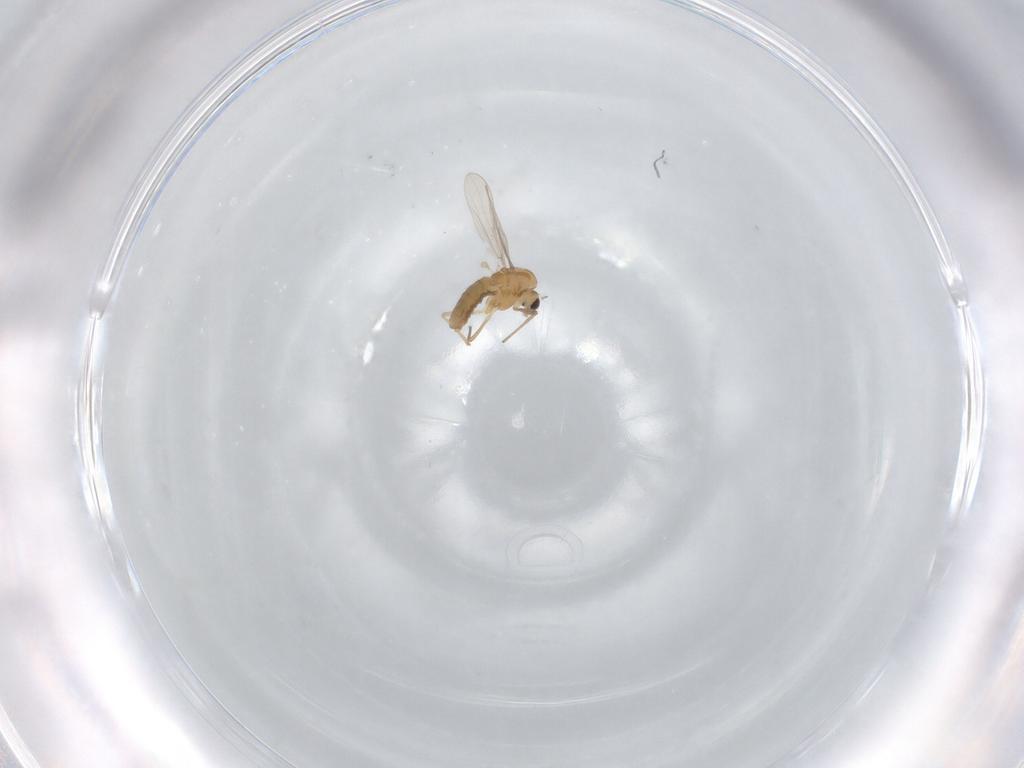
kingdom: Animalia
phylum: Arthropoda
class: Insecta
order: Diptera
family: Chironomidae
